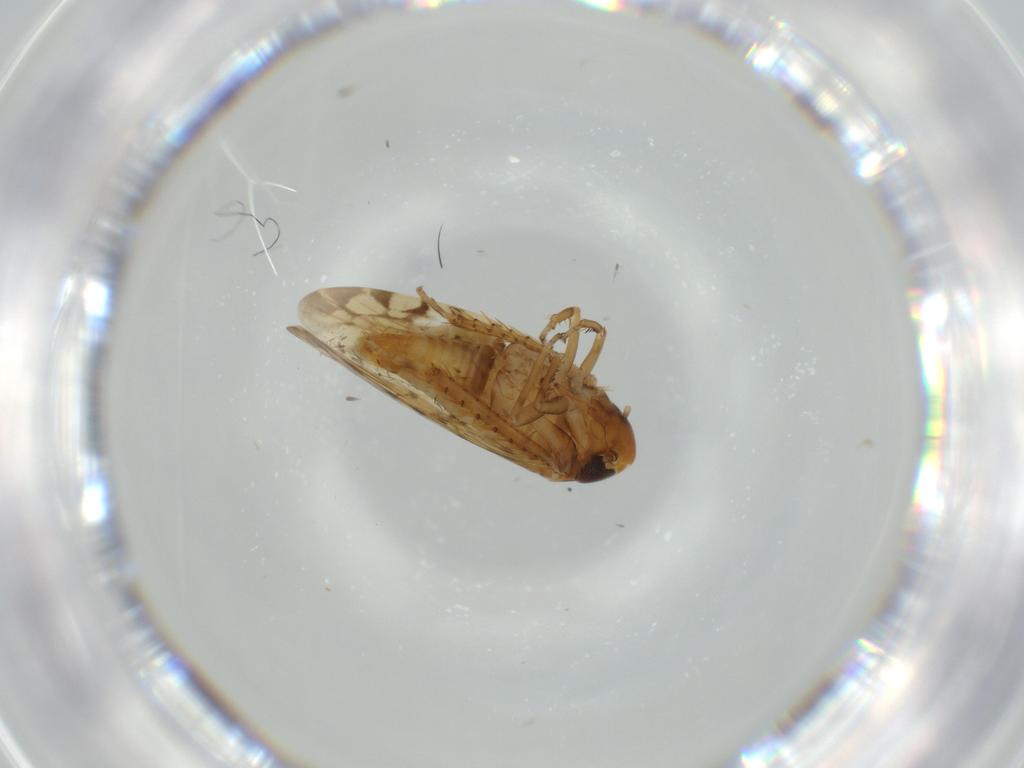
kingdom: Animalia
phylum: Arthropoda
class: Insecta
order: Hemiptera
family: Cicadellidae
